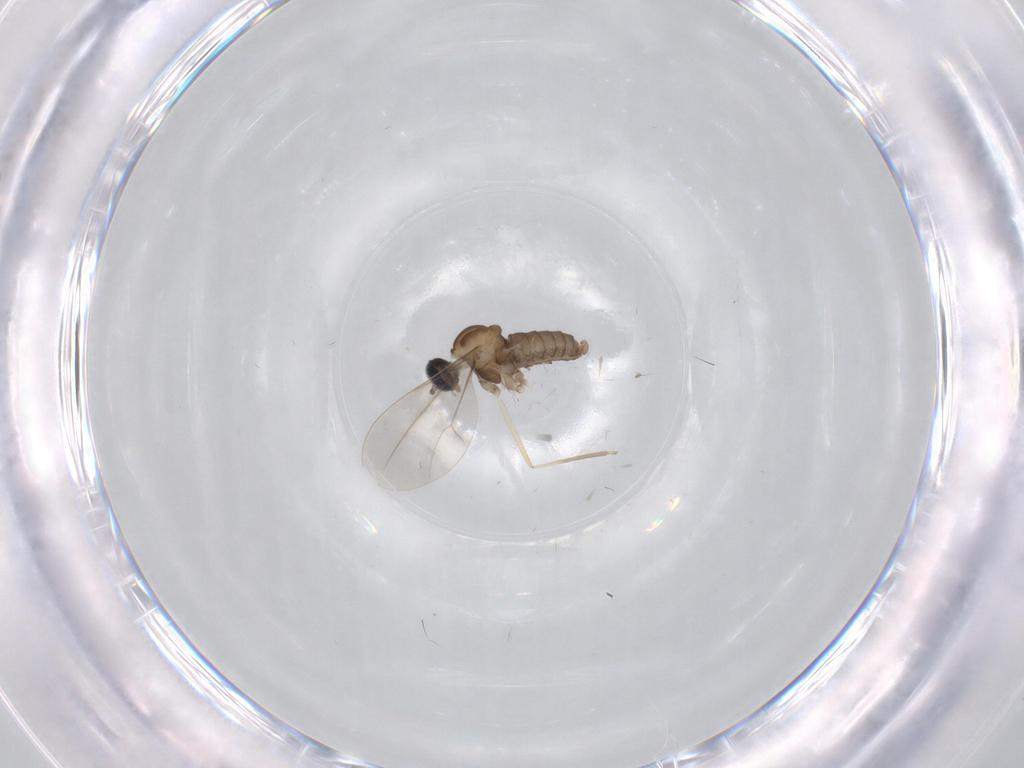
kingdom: Animalia
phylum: Arthropoda
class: Insecta
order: Diptera
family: Cecidomyiidae
